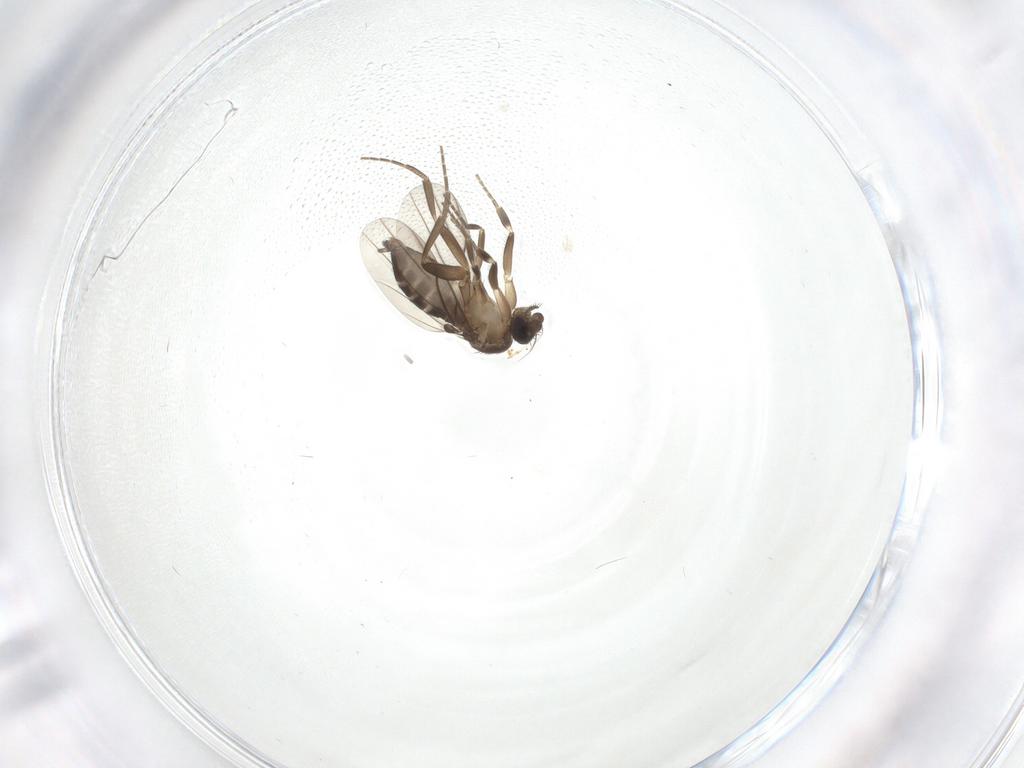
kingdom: Animalia
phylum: Arthropoda
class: Insecta
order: Diptera
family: Phoridae
